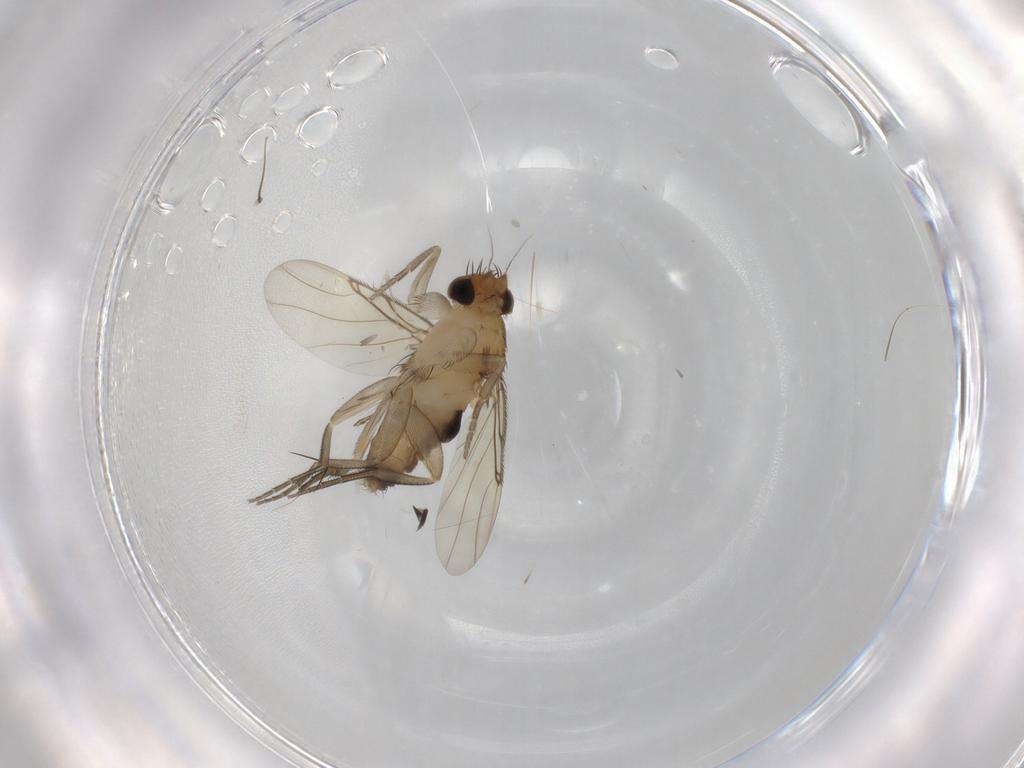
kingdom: Animalia
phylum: Arthropoda
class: Insecta
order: Diptera
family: Phoridae
